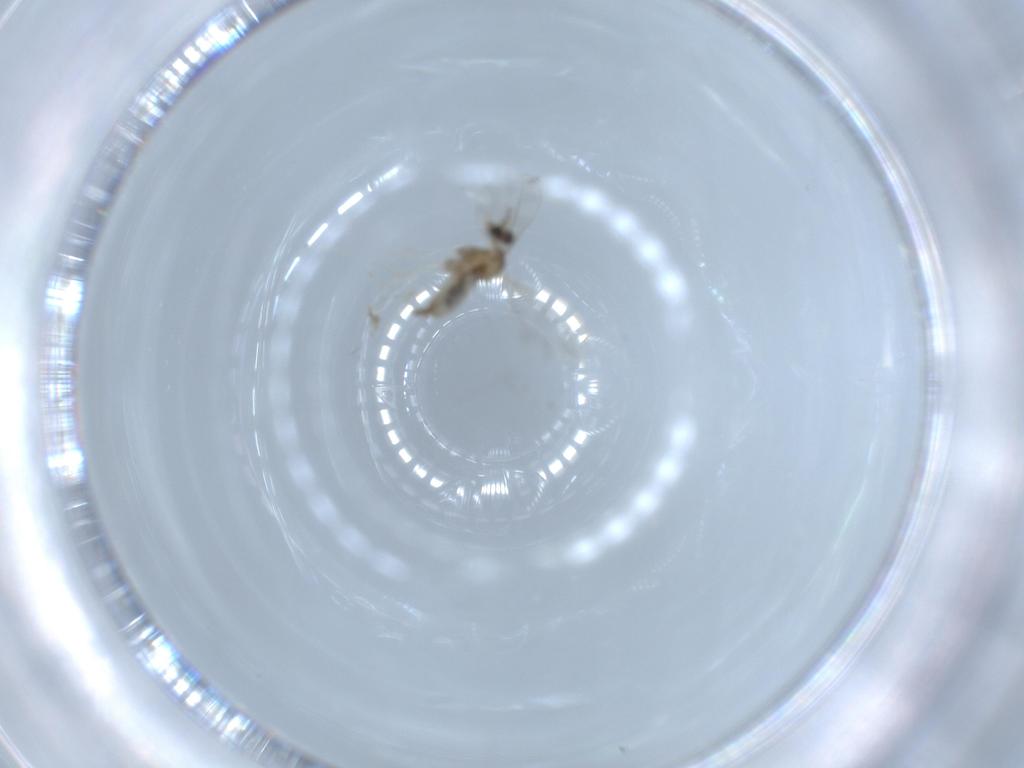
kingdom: Animalia
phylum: Arthropoda
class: Insecta
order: Diptera
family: Cecidomyiidae
